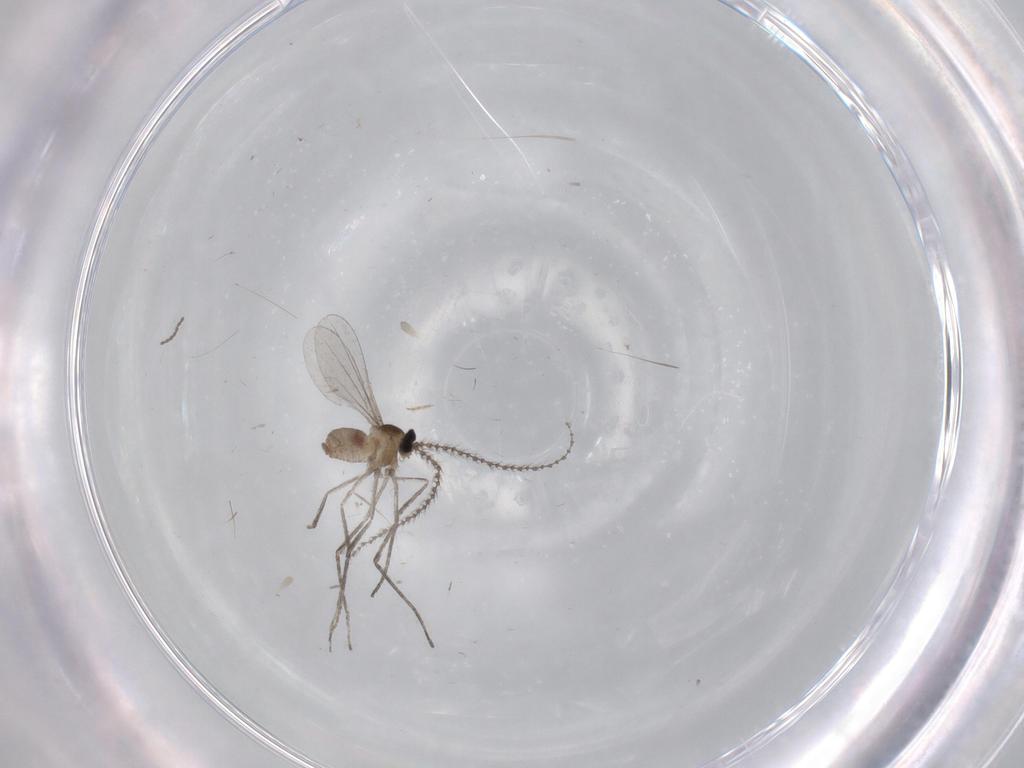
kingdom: Animalia
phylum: Arthropoda
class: Insecta
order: Diptera
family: Chironomidae
